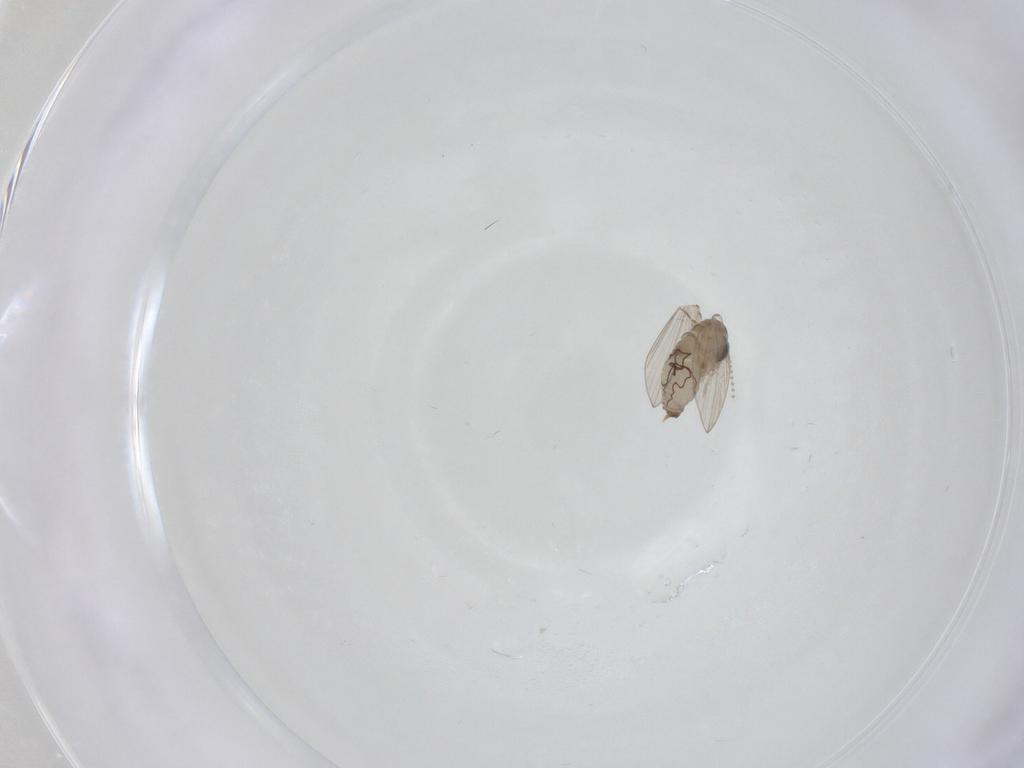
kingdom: Animalia
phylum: Arthropoda
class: Insecta
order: Diptera
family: Psychodidae
